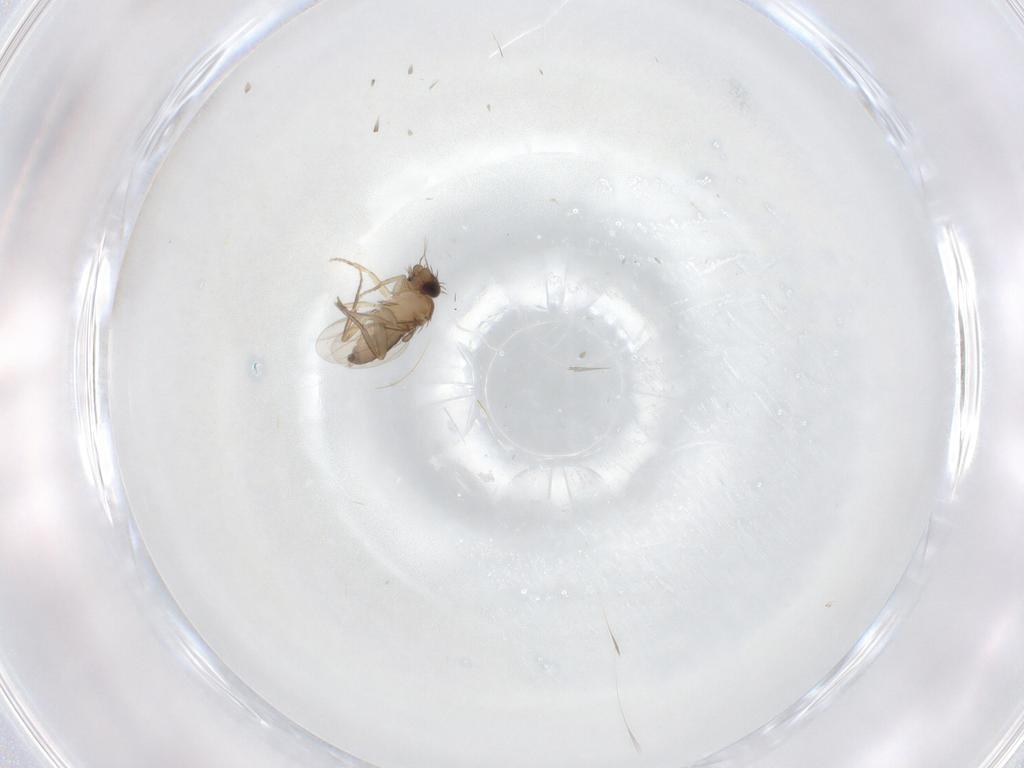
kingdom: Animalia
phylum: Arthropoda
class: Insecta
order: Diptera
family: Phoridae
